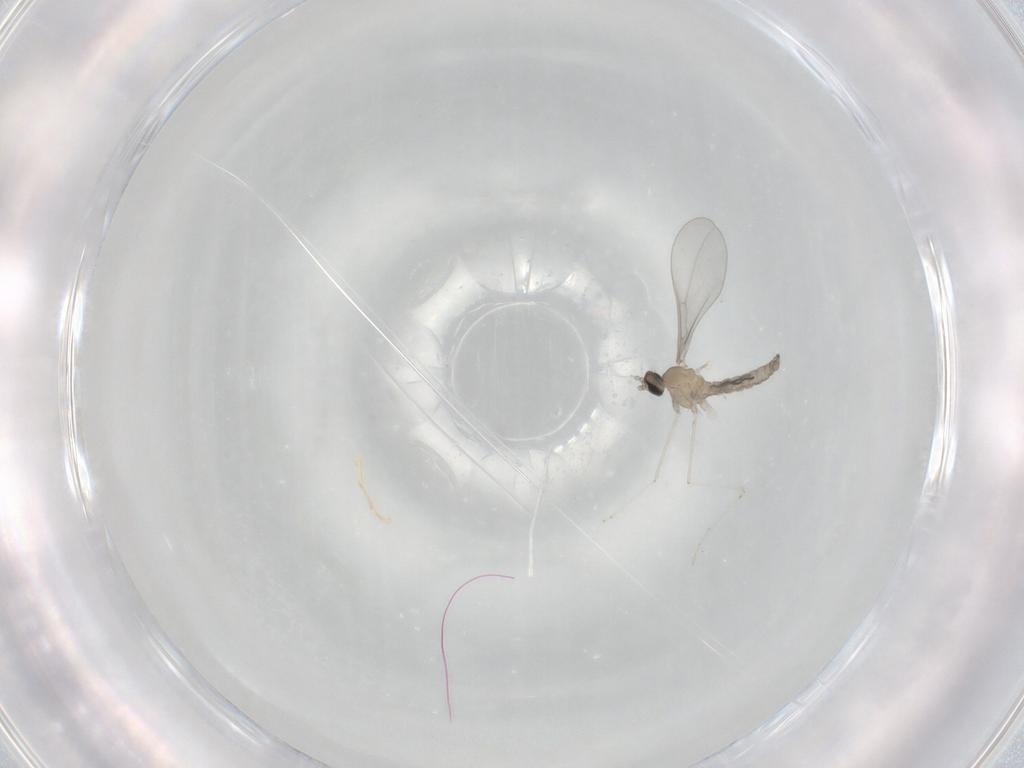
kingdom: Animalia
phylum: Arthropoda
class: Insecta
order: Diptera
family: Cecidomyiidae
